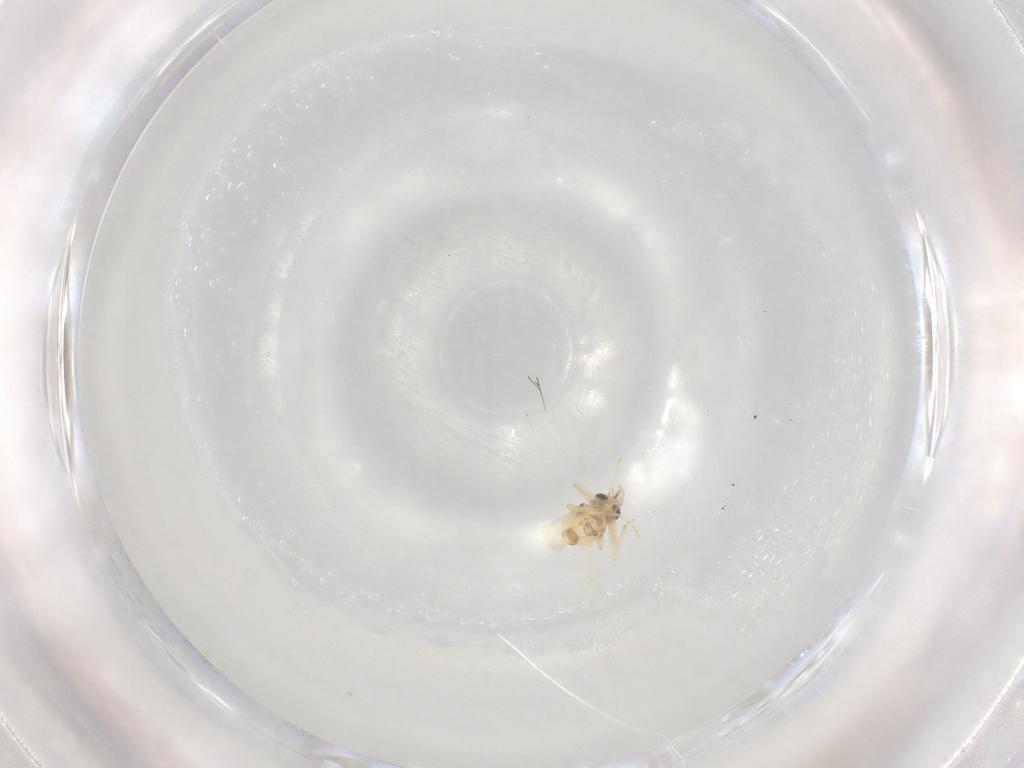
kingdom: Animalia
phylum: Arthropoda
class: Insecta
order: Diptera
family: Ceratopogonidae
